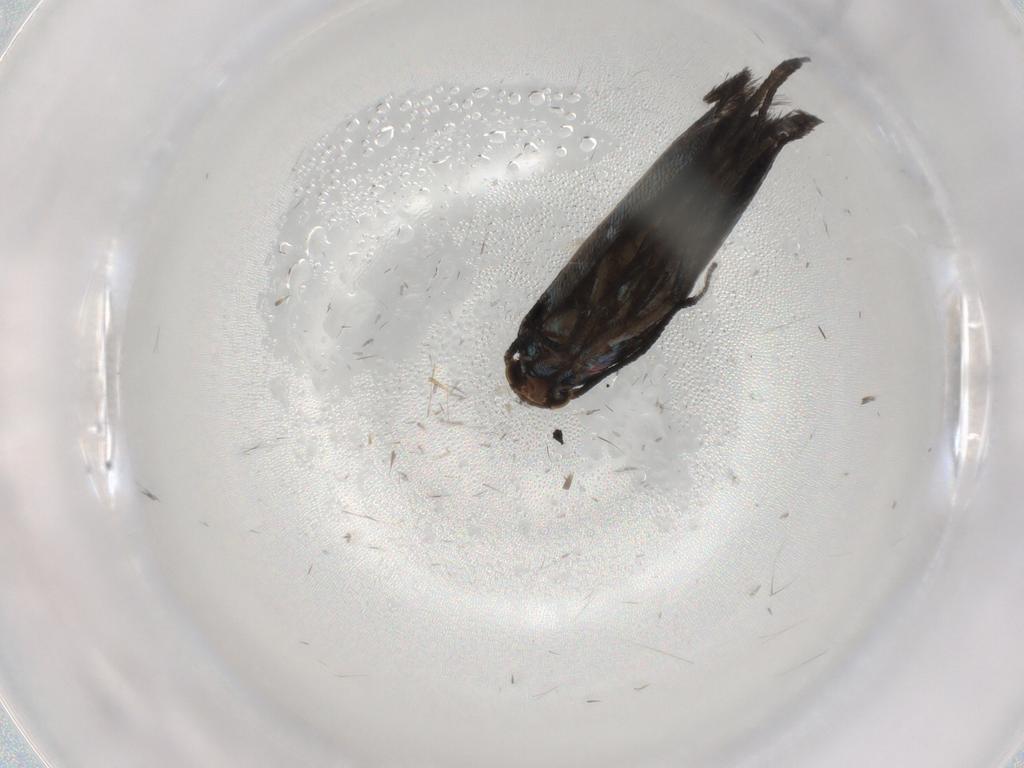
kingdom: Animalia
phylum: Arthropoda
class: Insecta
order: Lepidoptera
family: Noctuidae
